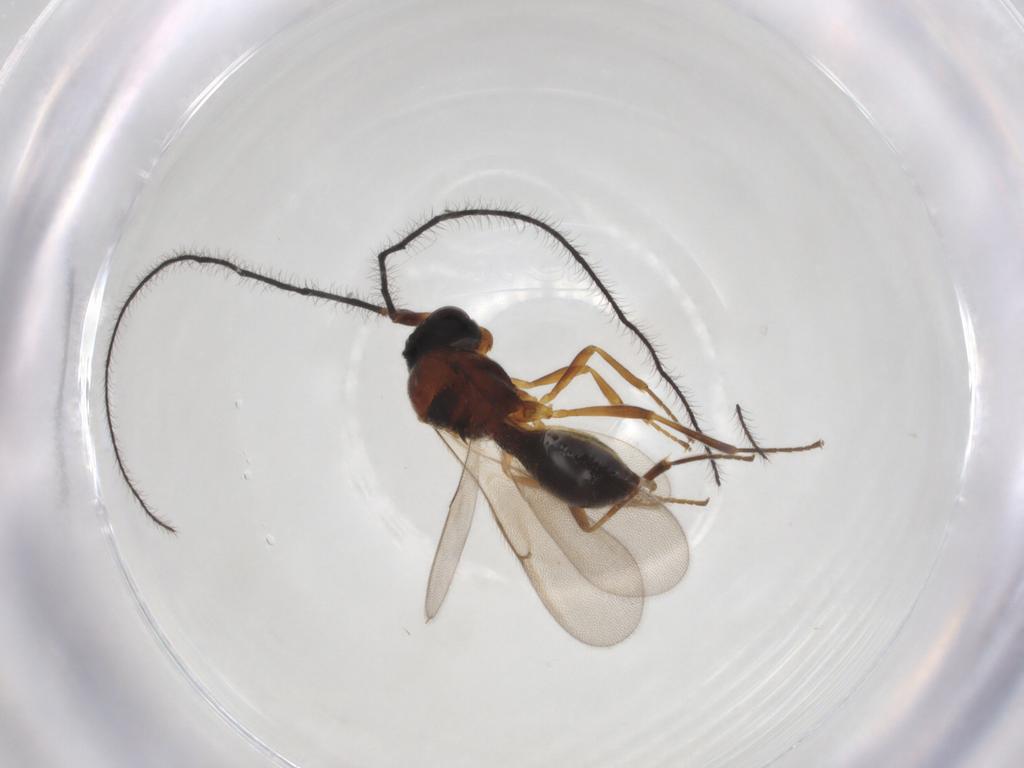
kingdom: Animalia
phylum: Arthropoda
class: Insecta
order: Hymenoptera
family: Scelionidae
